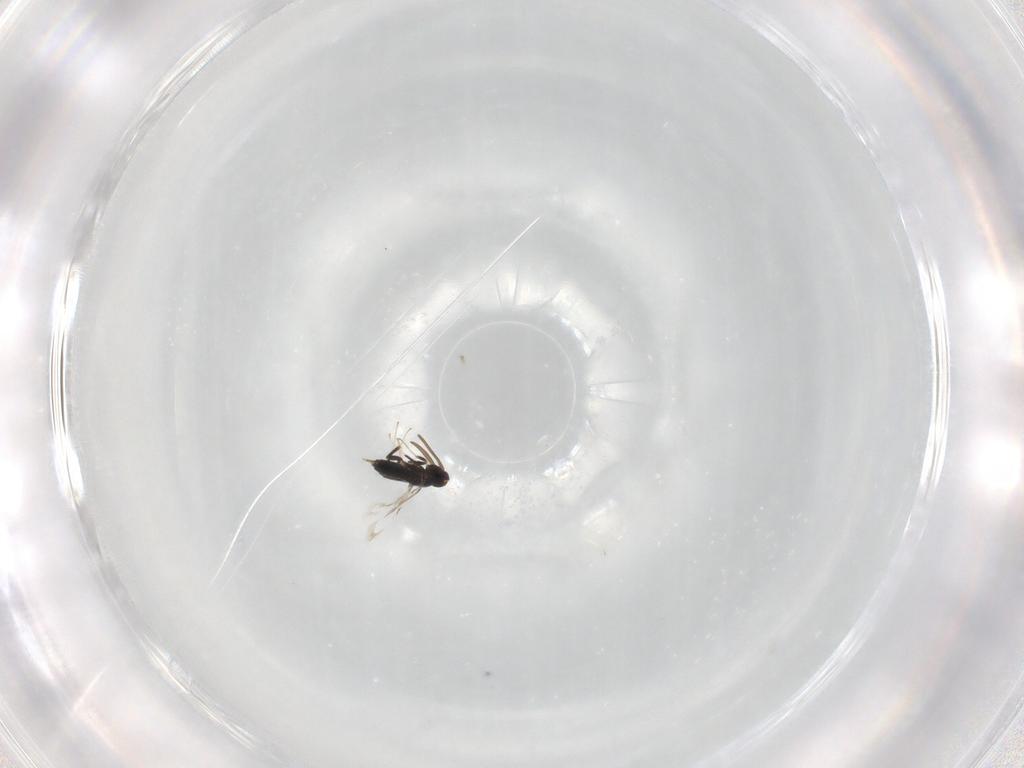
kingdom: Animalia
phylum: Arthropoda
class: Insecta
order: Hymenoptera
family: Signiphoridae
